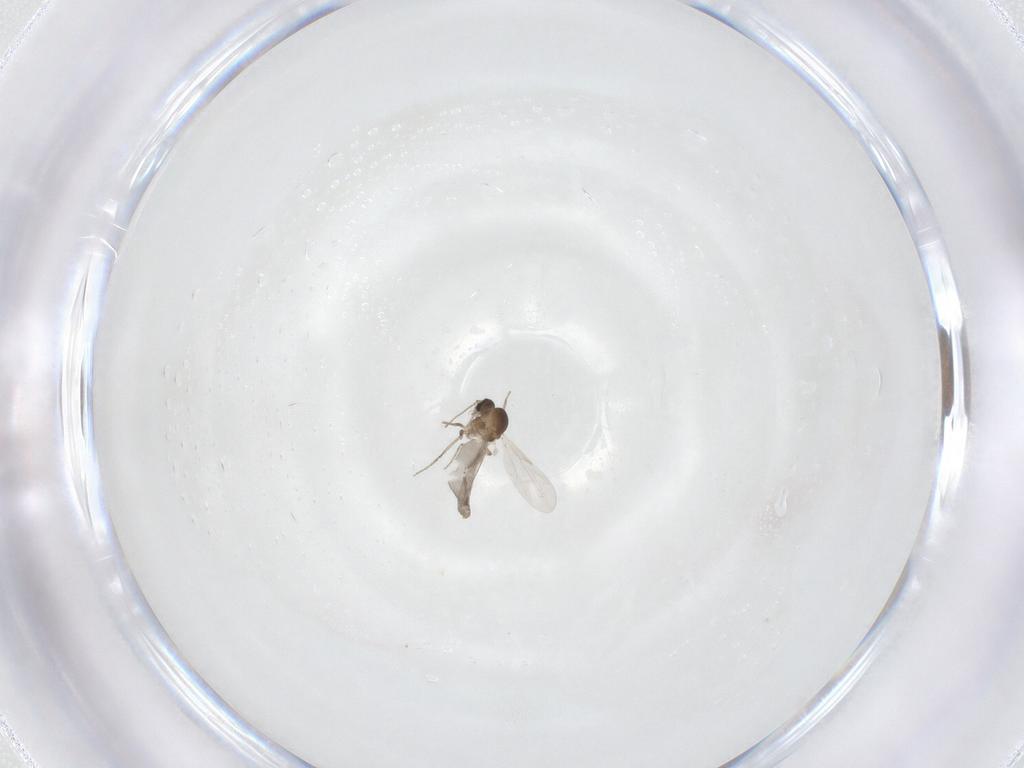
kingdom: Animalia
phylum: Arthropoda
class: Insecta
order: Diptera
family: Ceratopogonidae
